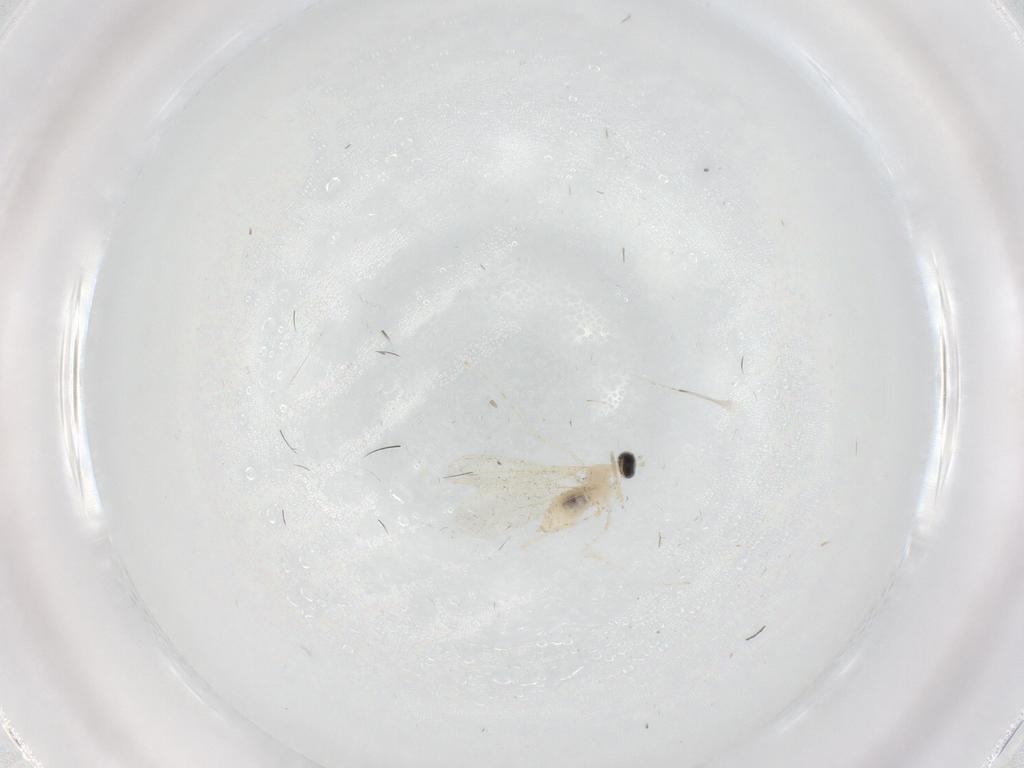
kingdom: Animalia
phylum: Arthropoda
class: Insecta
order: Diptera
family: Cecidomyiidae
